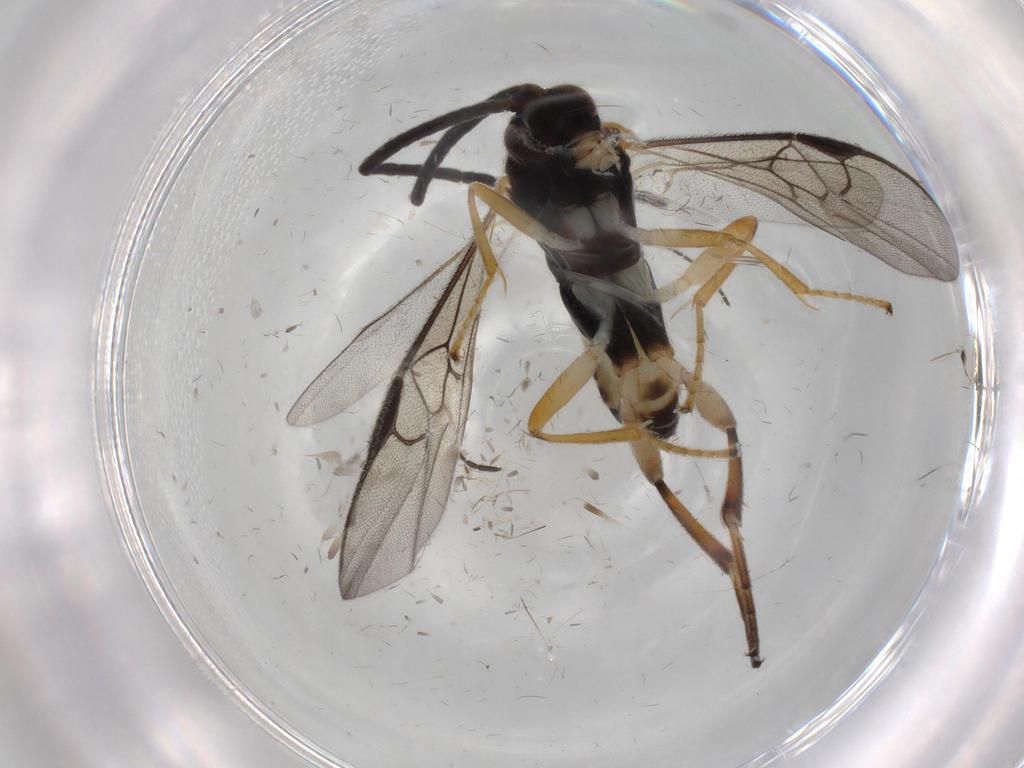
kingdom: Animalia
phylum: Arthropoda
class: Insecta
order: Hymenoptera
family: Braconidae
